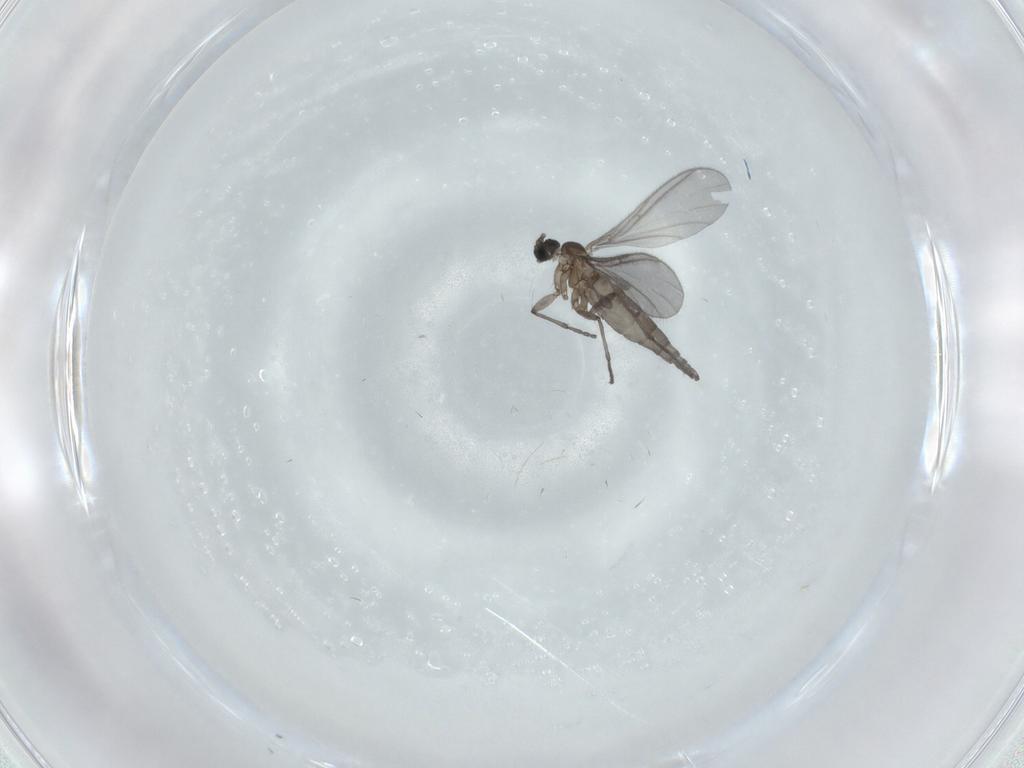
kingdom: Animalia
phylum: Arthropoda
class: Insecta
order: Diptera
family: Sciaridae
